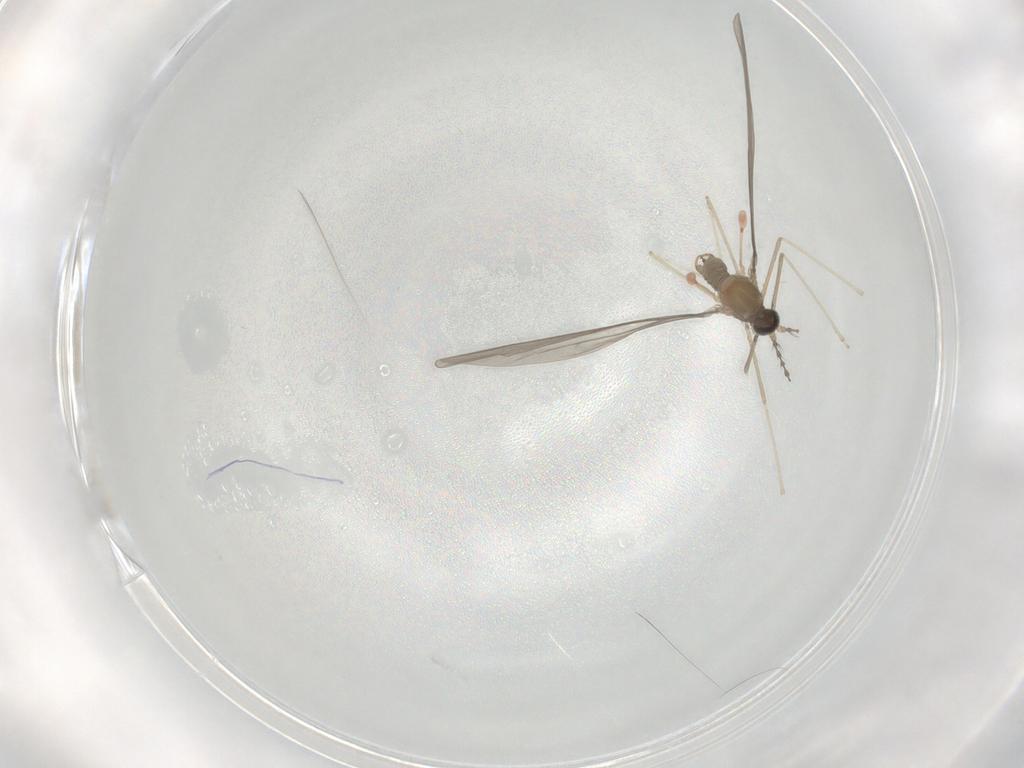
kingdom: Animalia
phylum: Arthropoda
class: Insecta
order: Diptera
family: Cecidomyiidae
